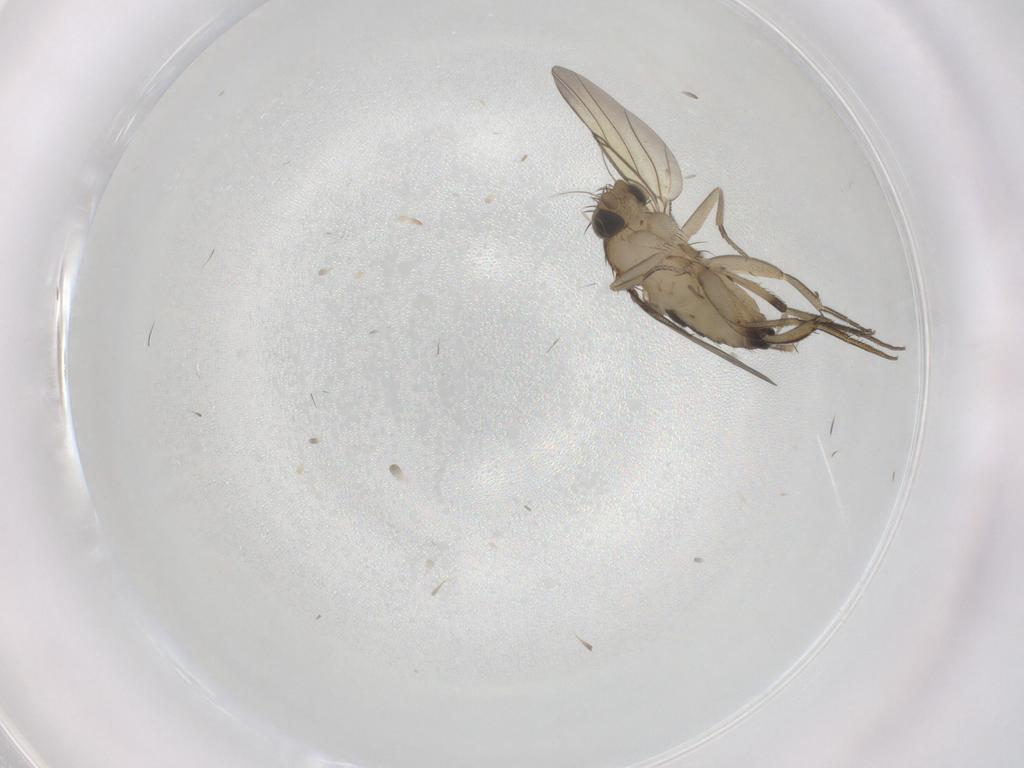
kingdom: Animalia
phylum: Arthropoda
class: Insecta
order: Diptera
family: Phoridae
